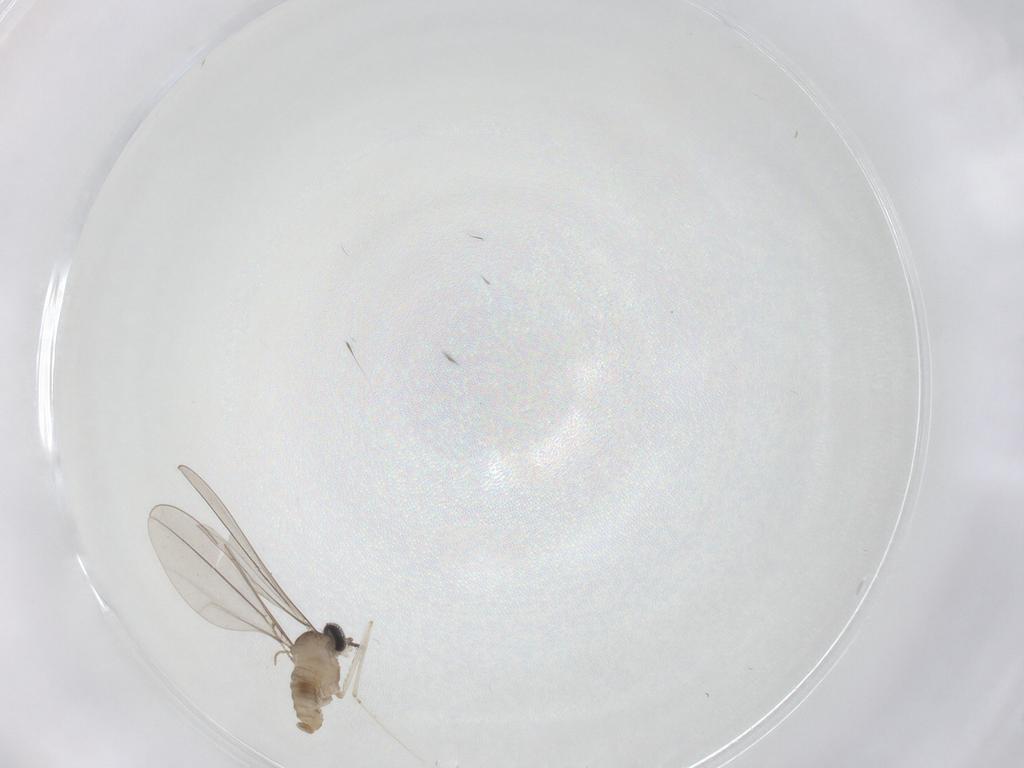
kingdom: Animalia
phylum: Arthropoda
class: Insecta
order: Diptera
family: Cecidomyiidae
